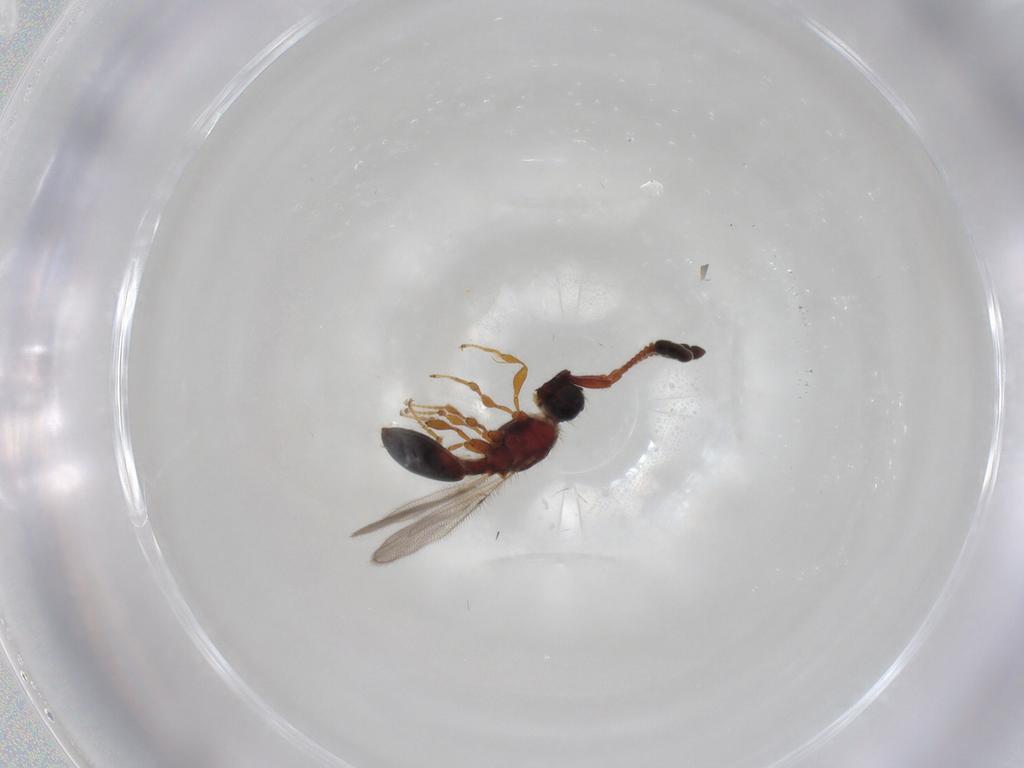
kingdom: Animalia
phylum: Arthropoda
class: Insecta
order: Hymenoptera
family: Diapriidae
